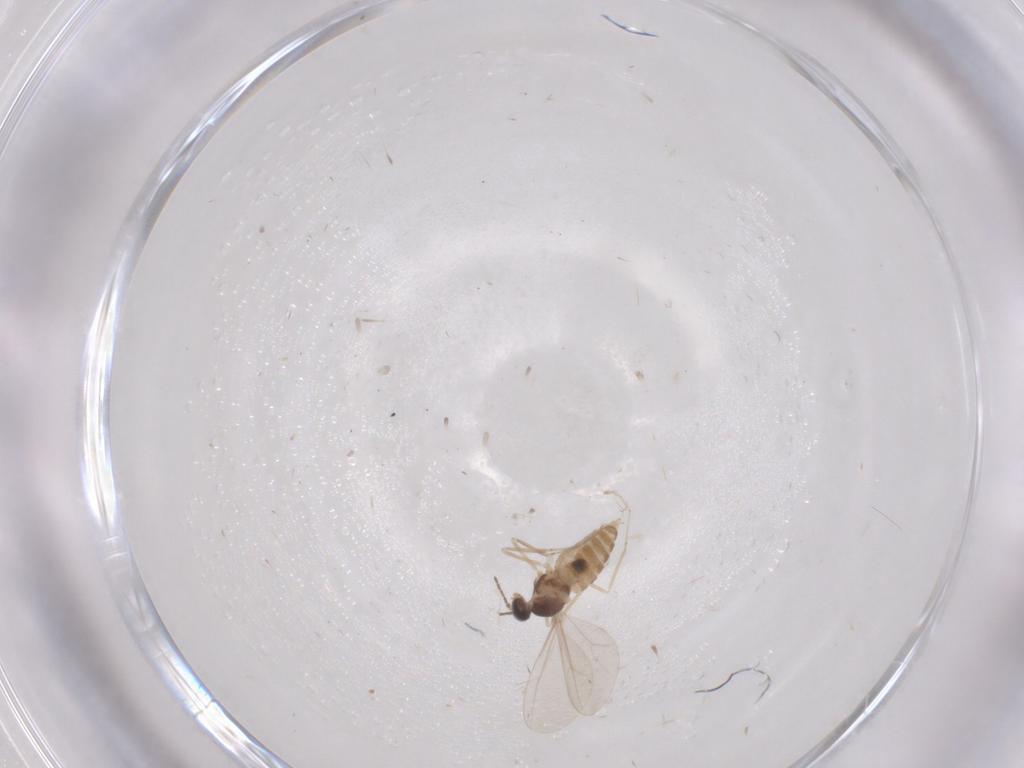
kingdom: Animalia
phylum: Arthropoda
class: Insecta
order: Diptera
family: Cecidomyiidae
